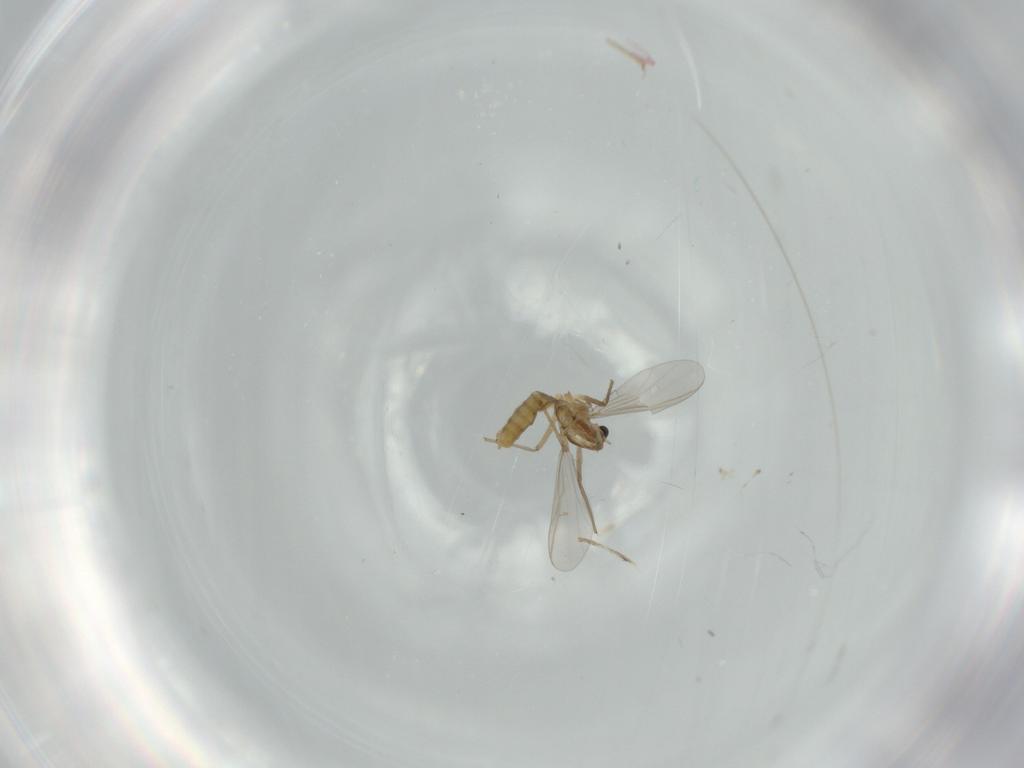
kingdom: Animalia
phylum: Arthropoda
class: Insecta
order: Diptera
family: Chironomidae
